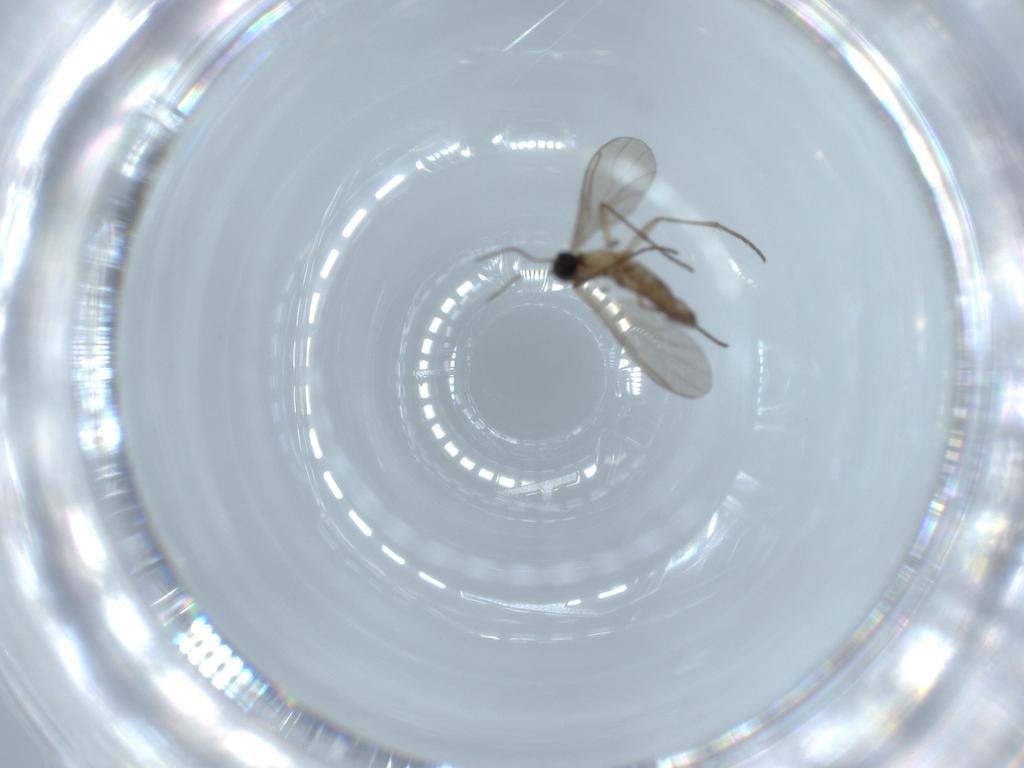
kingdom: Animalia
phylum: Arthropoda
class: Insecta
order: Diptera
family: Sciaridae
